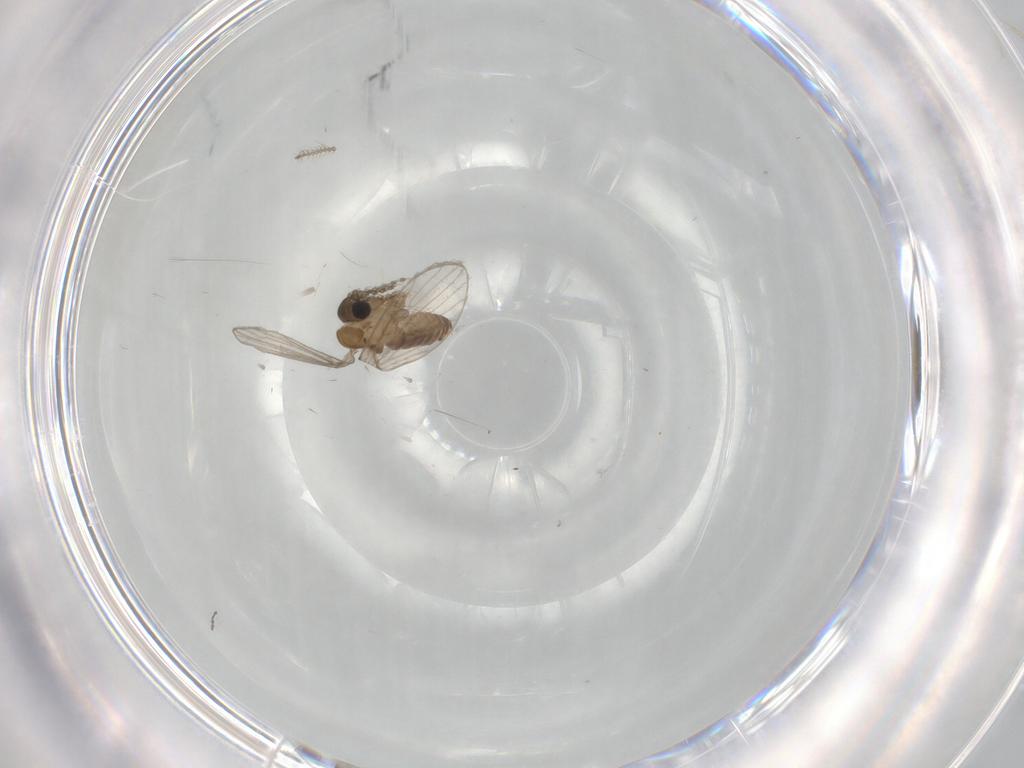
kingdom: Animalia
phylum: Arthropoda
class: Insecta
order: Diptera
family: Ceratopogonidae
